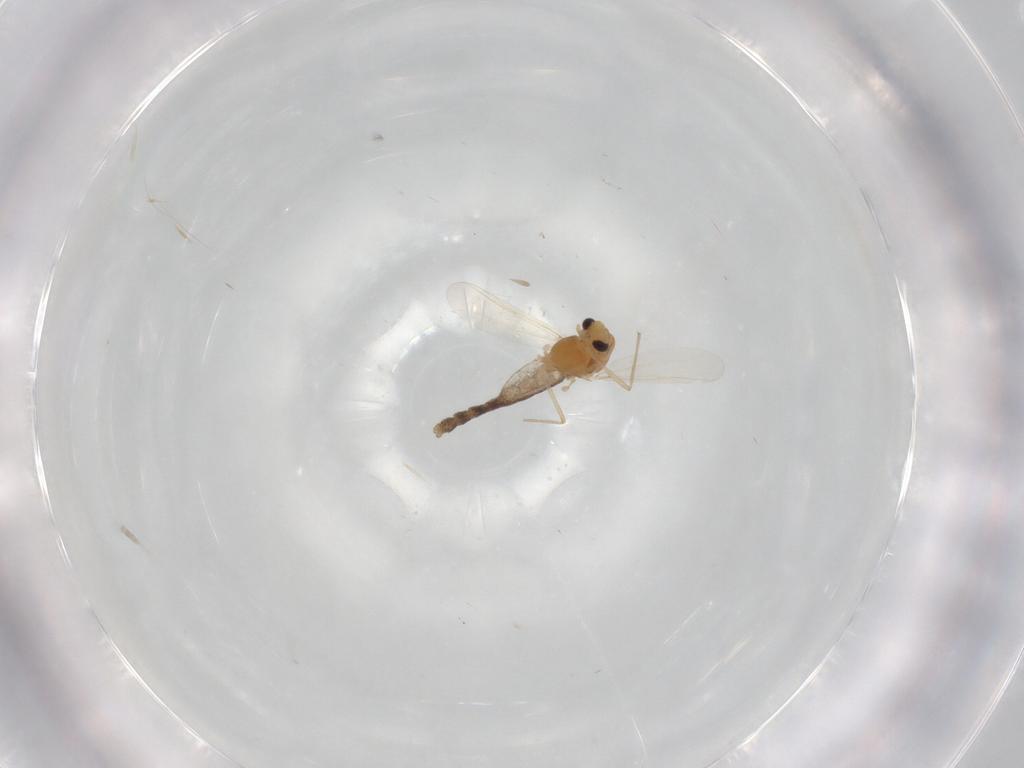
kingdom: Animalia
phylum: Arthropoda
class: Insecta
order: Diptera
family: Chironomidae
